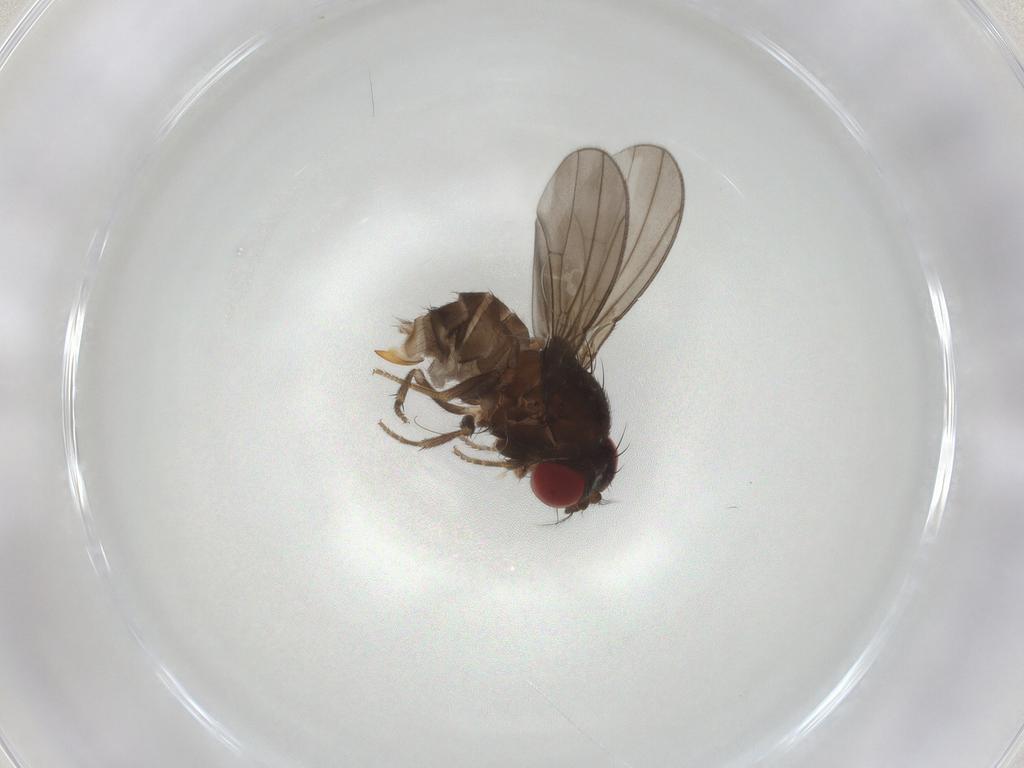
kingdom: Animalia
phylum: Arthropoda
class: Insecta
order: Diptera
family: Drosophilidae
